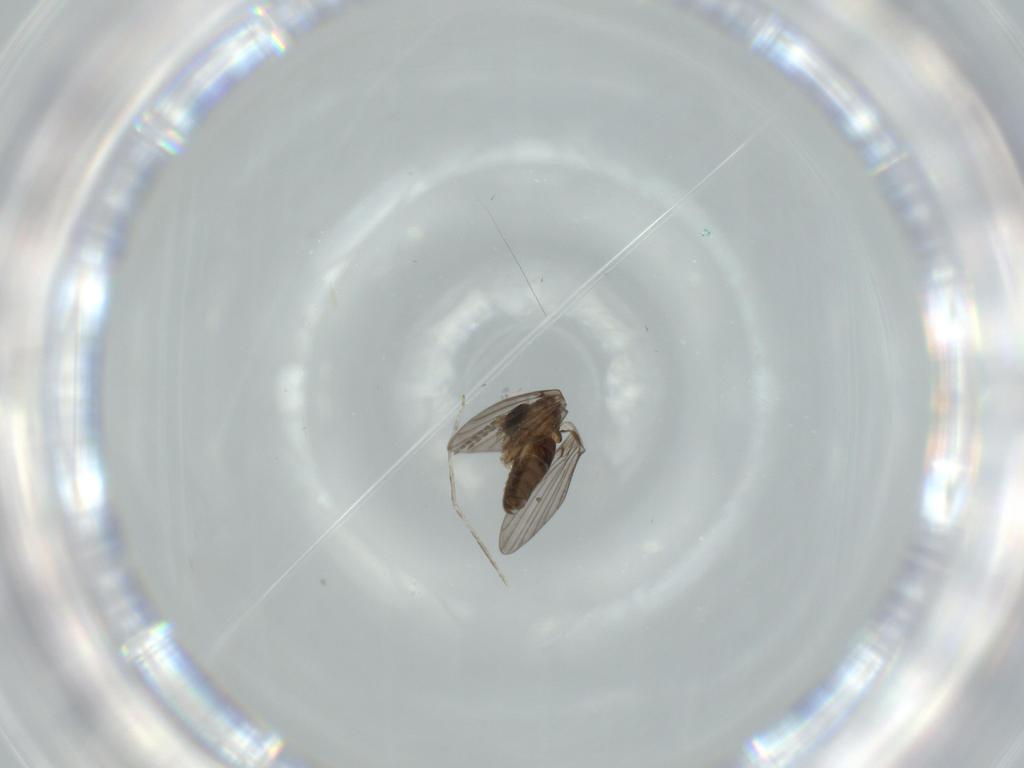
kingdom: Animalia
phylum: Arthropoda
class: Insecta
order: Diptera
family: Psychodidae
